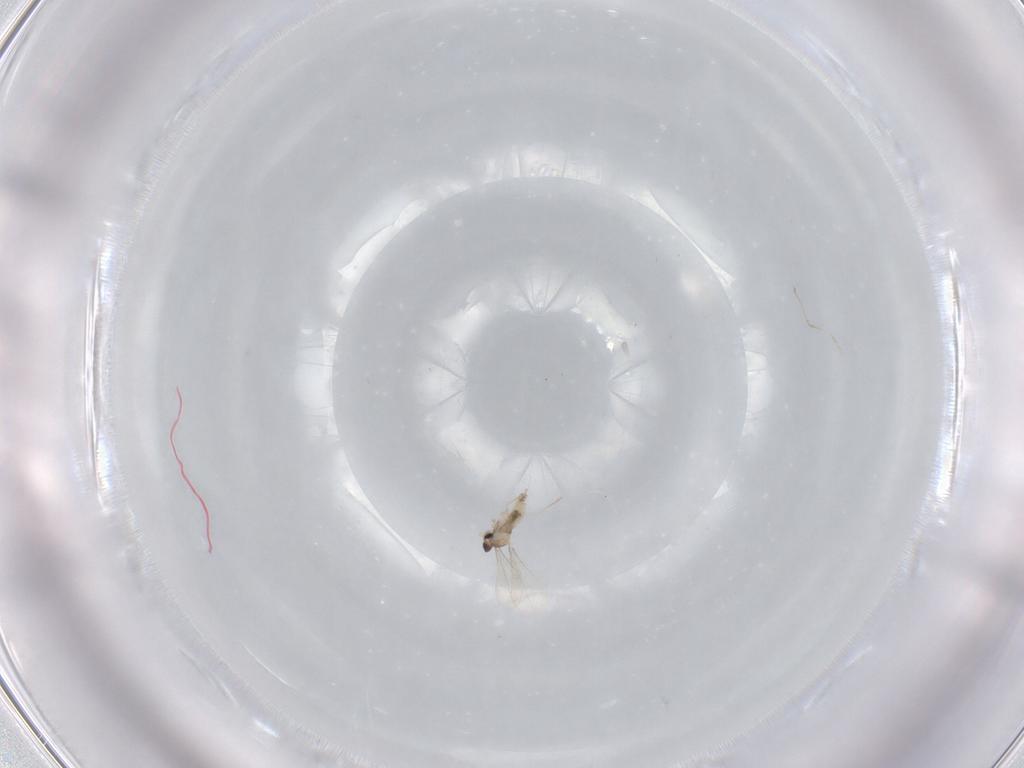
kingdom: Animalia
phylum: Arthropoda
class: Insecta
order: Diptera
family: Cecidomyiidae
